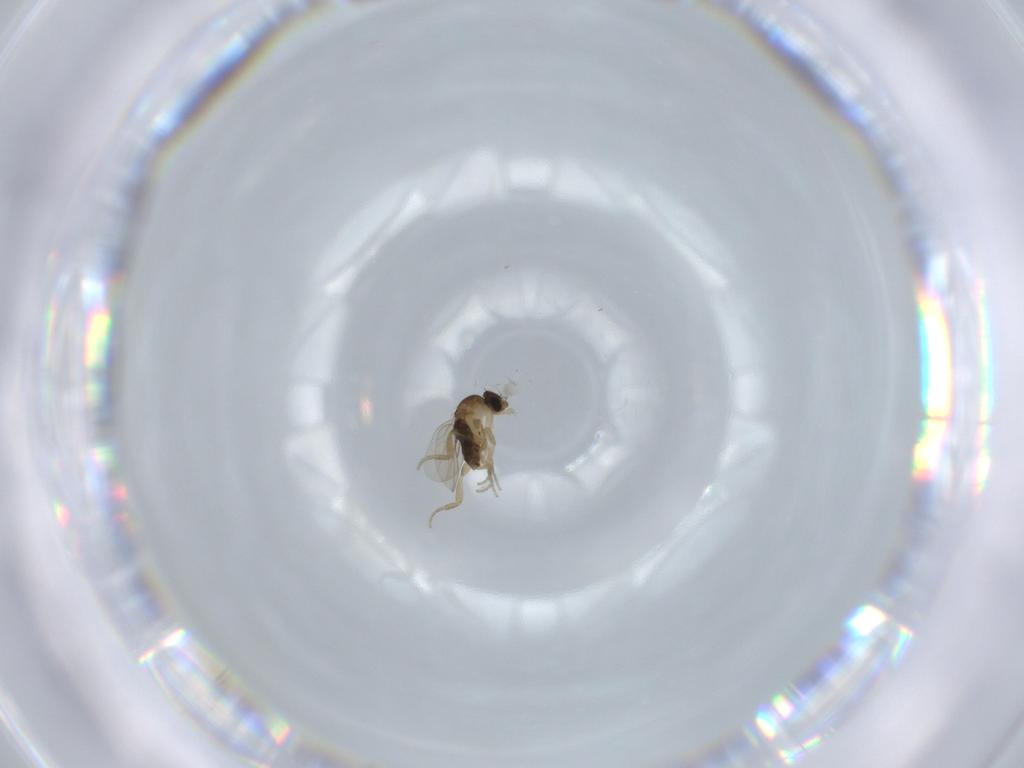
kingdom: Animalia
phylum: Arthropoda
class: Insecta
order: Diptera
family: Phoridae
